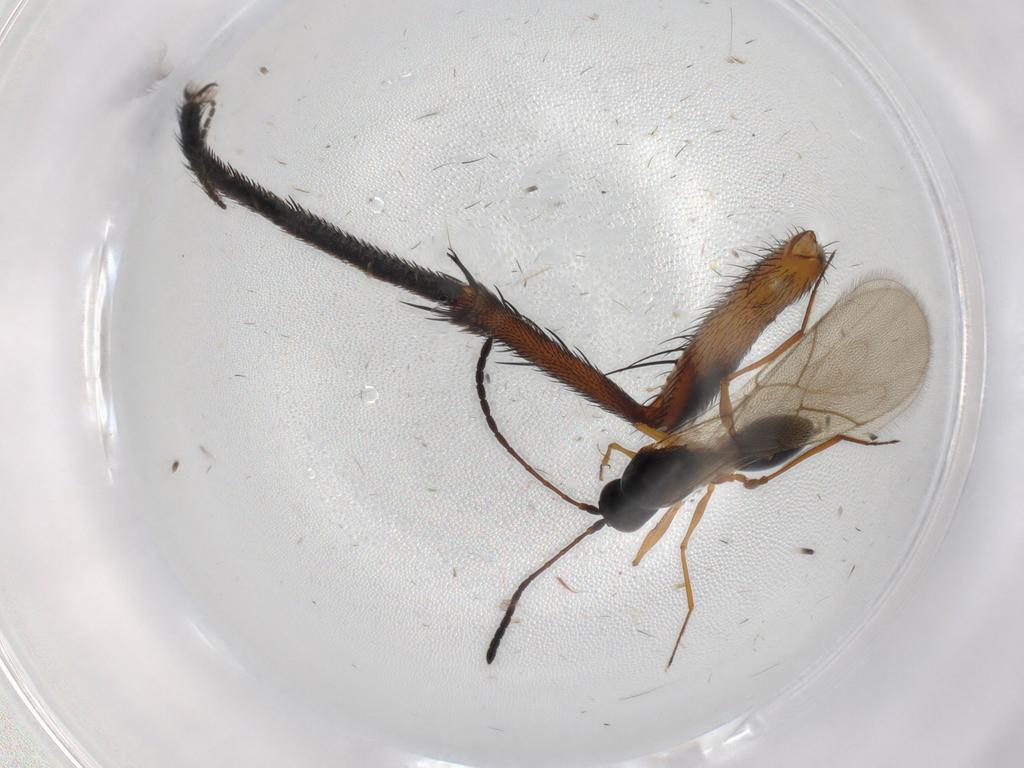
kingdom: Animalia
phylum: Arthropoda
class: Insecta
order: Hymenoptera
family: Figitidae
